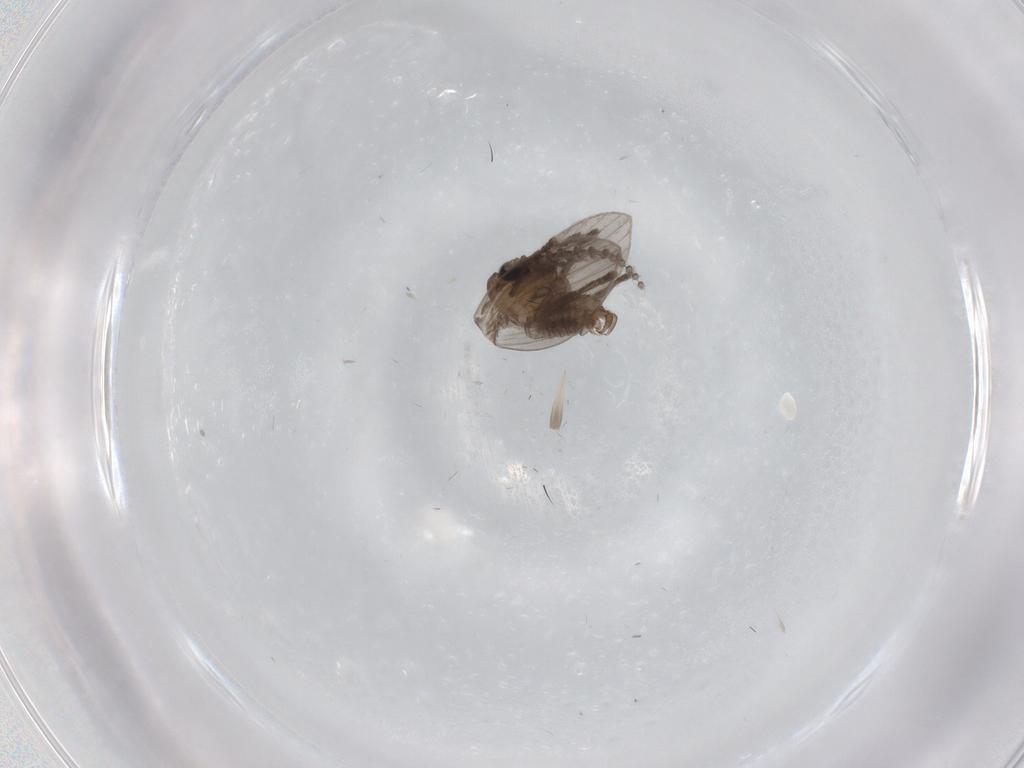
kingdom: Animalia
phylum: Arthropoda
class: Insecta
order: Diptera
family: Psychodidae
